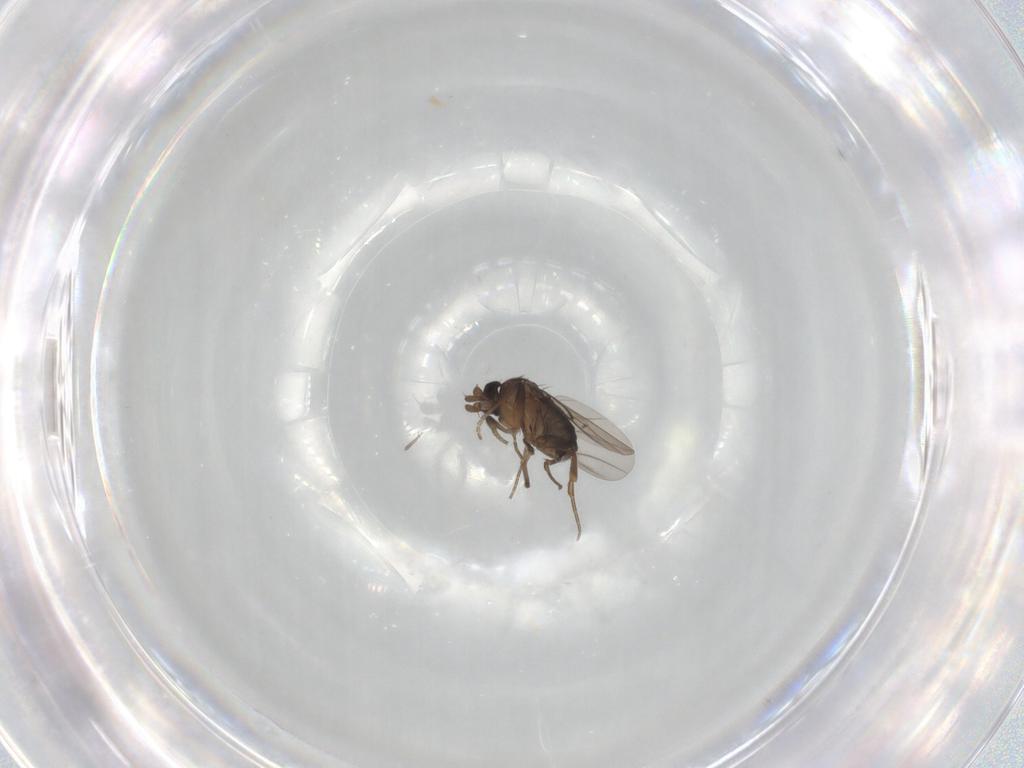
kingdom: Animalia
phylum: Arthropoda
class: Insecta
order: Diptera
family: Phoridae
